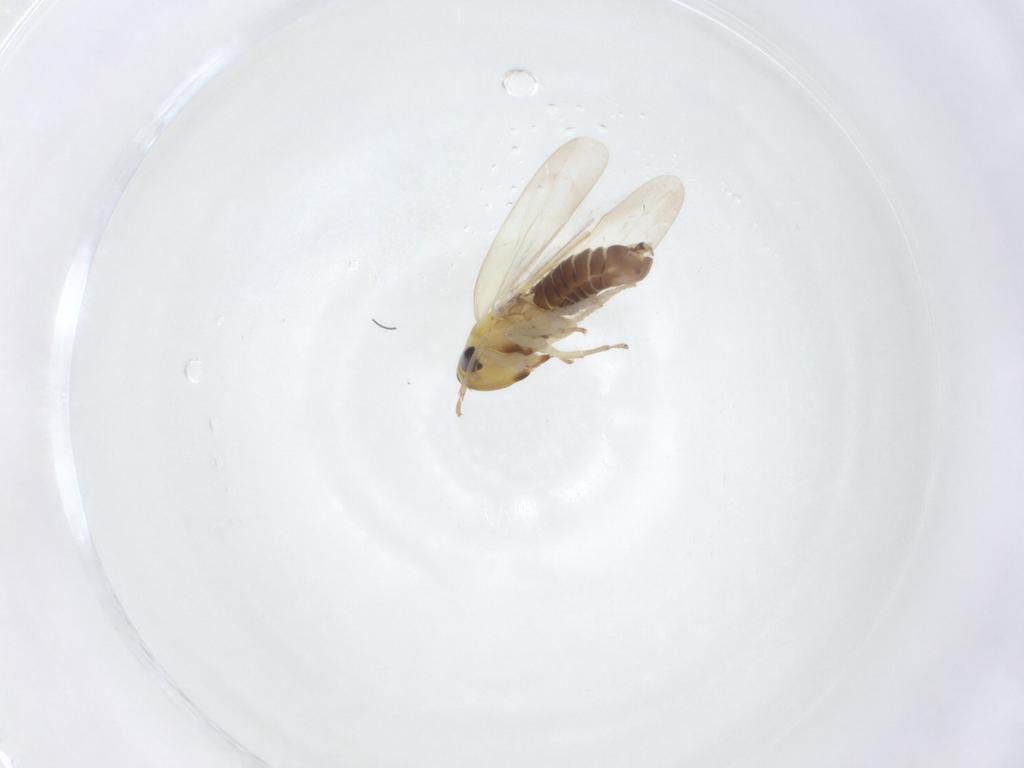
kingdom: Animalia
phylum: Arthropoda
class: Insecta
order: Hemiptera
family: Cicadellidae
